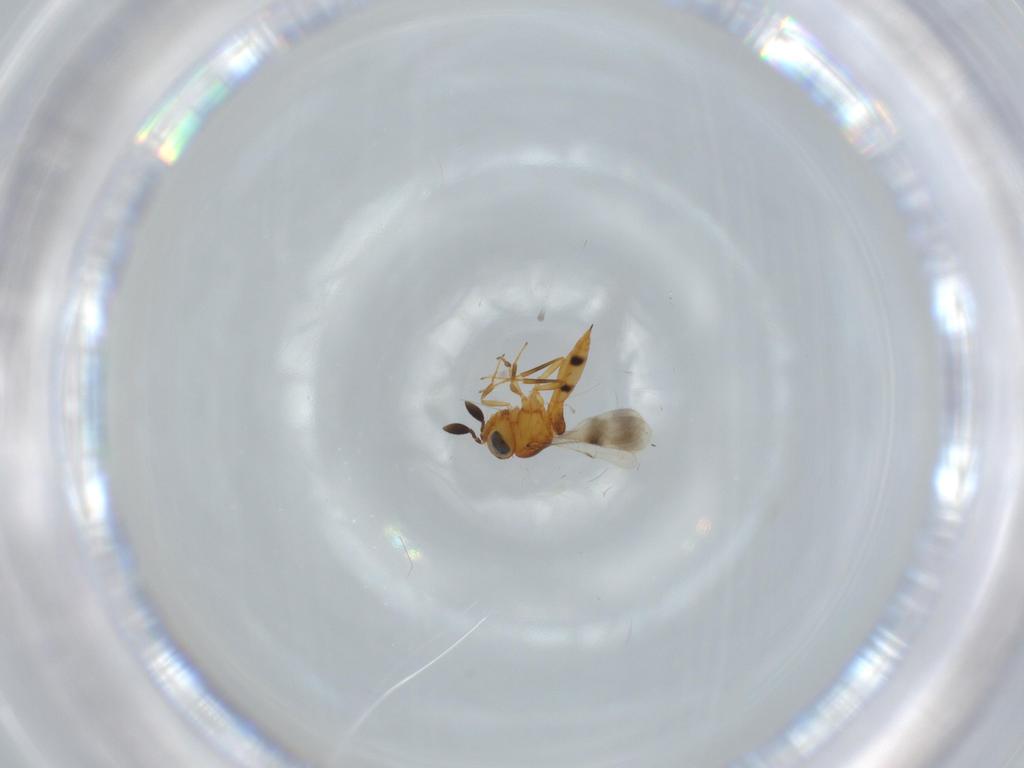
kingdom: Animalia
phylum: Arthropoda
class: Insecta
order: Hymenoptera
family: Scelionidae
